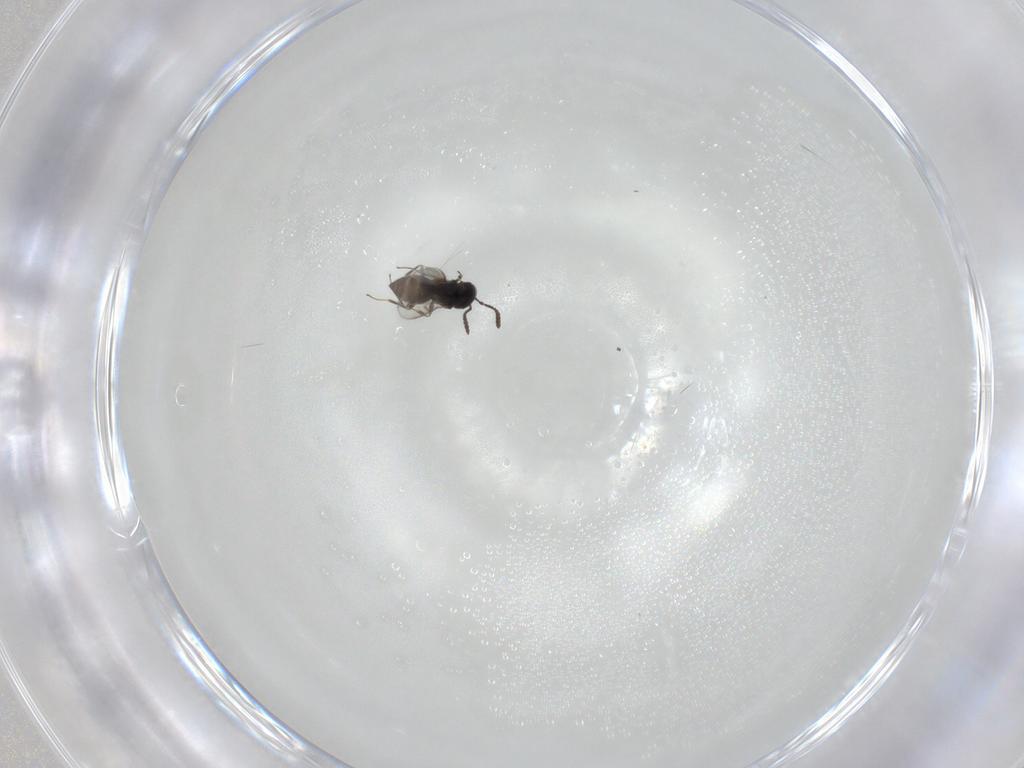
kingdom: Animalia
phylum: Arthropoda
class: Insecta
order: Hymenoptera
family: Scelionidae
